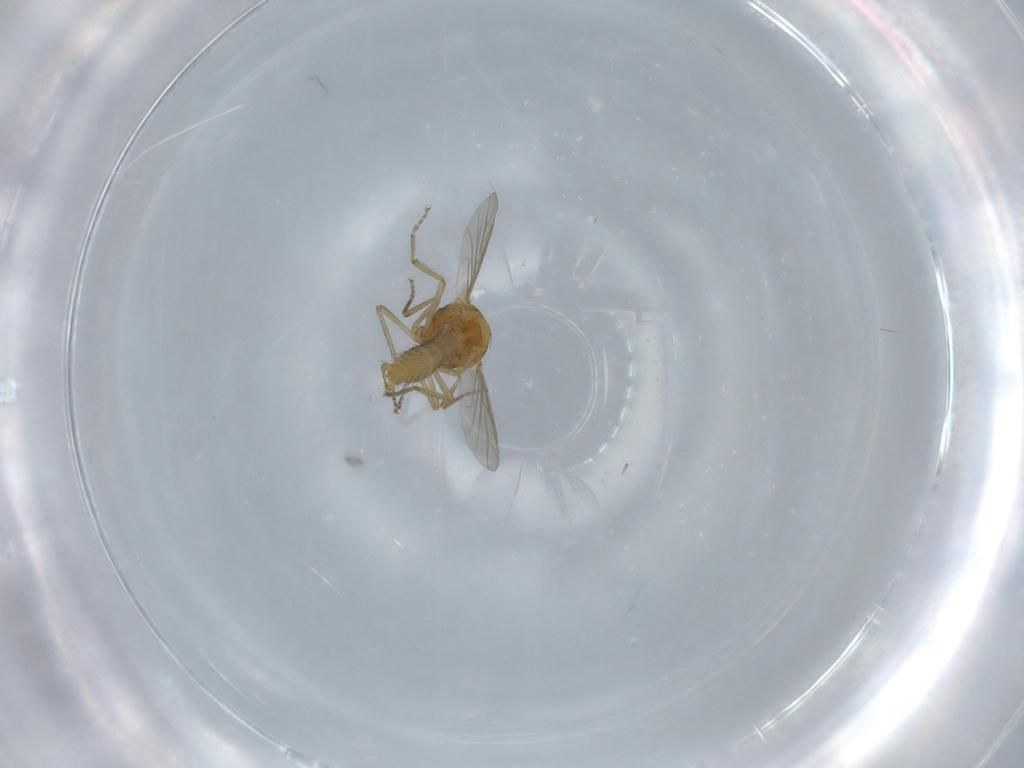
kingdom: Animalia
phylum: Arthropoda
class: Insecta
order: Diptera
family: Ceratopogonidae
